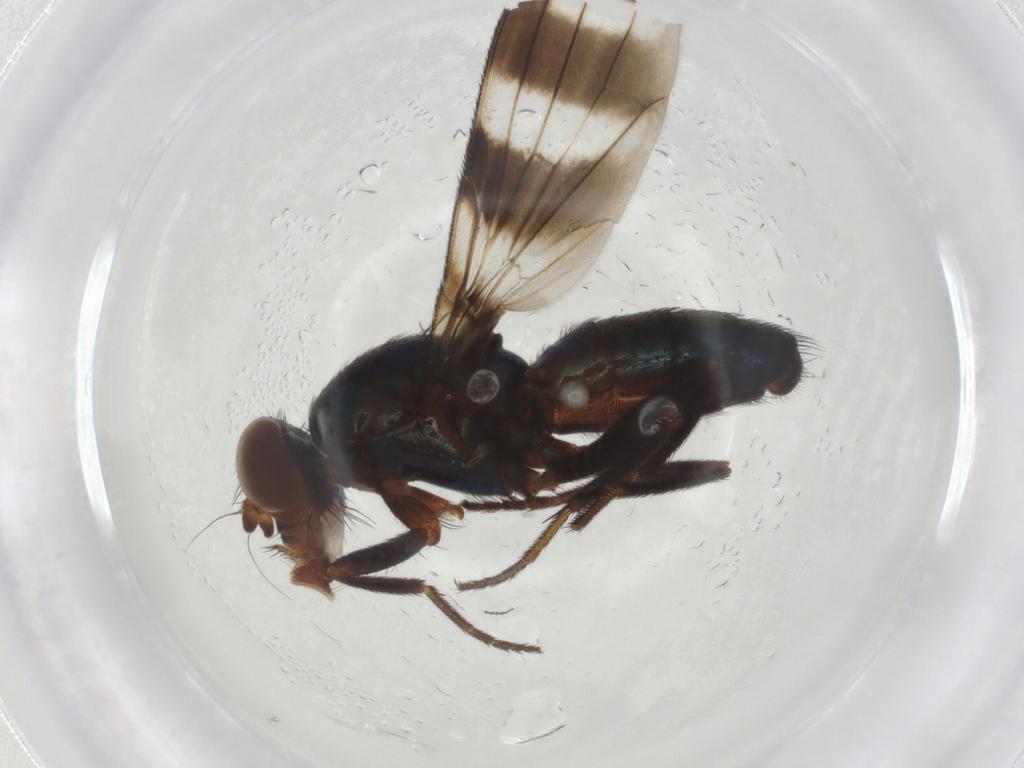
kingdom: Animalia
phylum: Arthropoda
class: Insecta
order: Diptera
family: Ulidiidae
